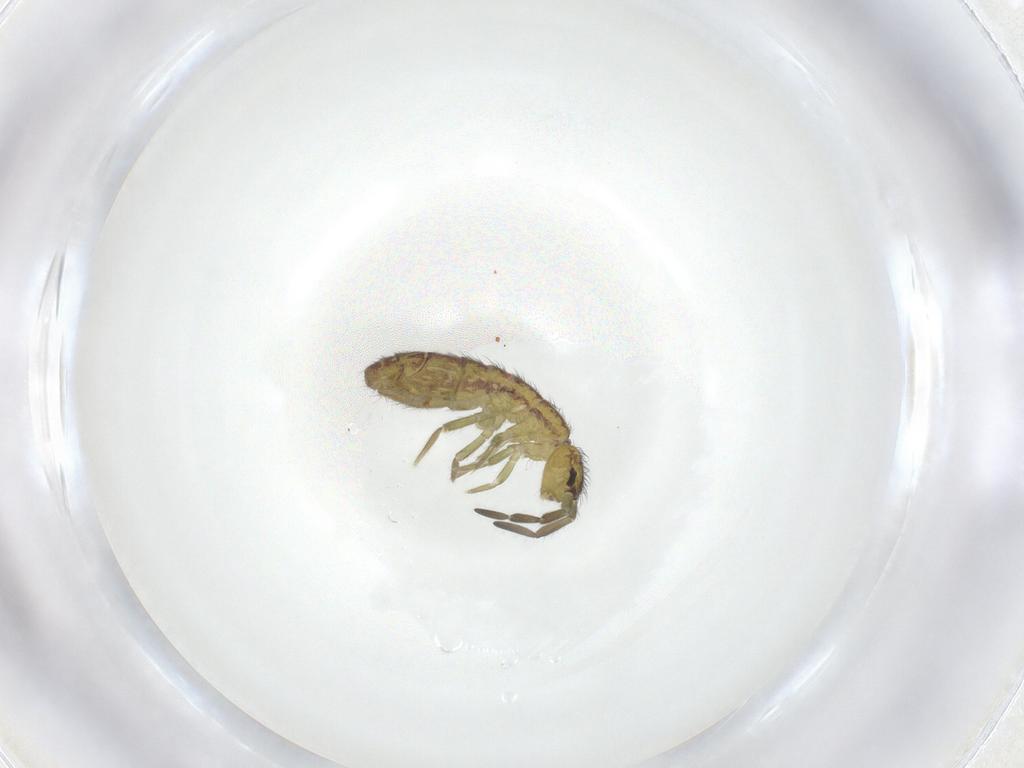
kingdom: Animalia
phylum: Arthropoda
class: Collembola
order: Entomobryomorpha
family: Isotomidae
